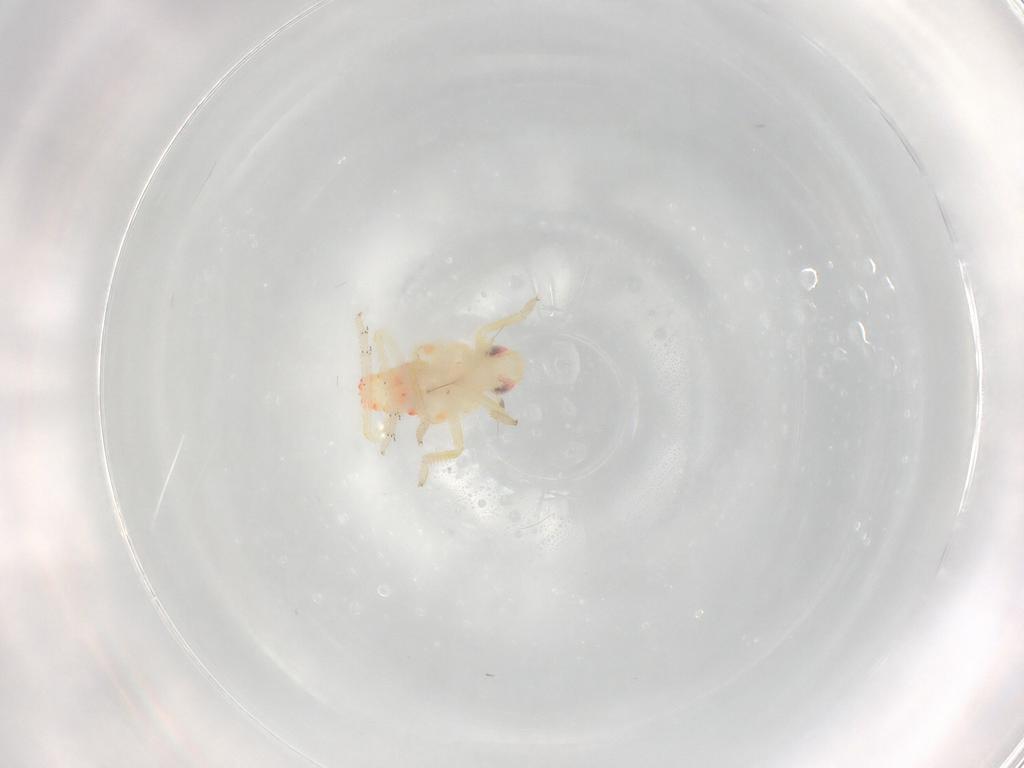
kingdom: Animalia
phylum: Arthropoda
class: Insecta
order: Hemiptera
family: Tropiduchidae
